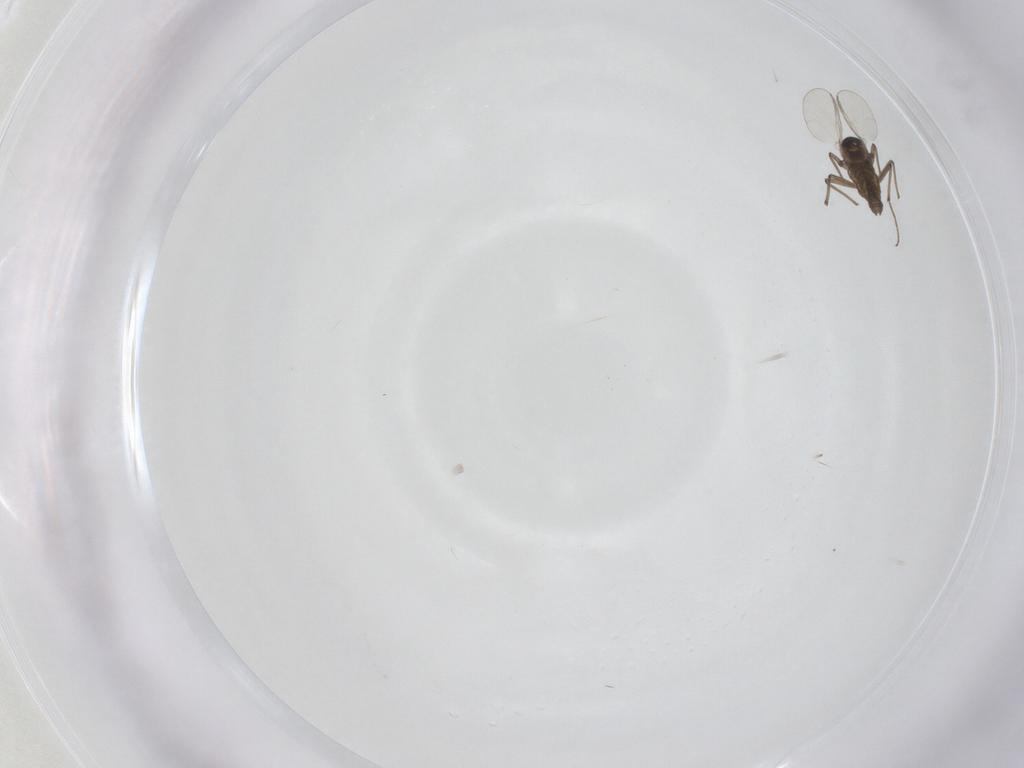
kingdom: Animalia
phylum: Arthropoda
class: Insecta
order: Diptera
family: Chironomidae
